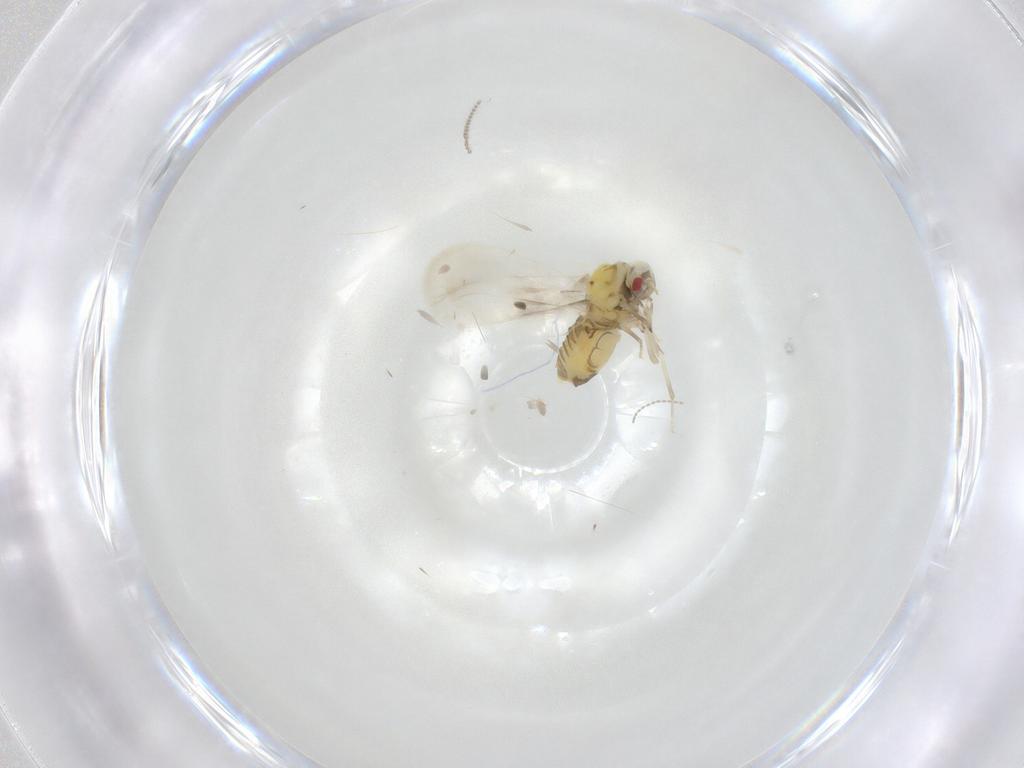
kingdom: Animalia
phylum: Arthropoda
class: Insecta
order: Hemiptera
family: Aleyrodidae
